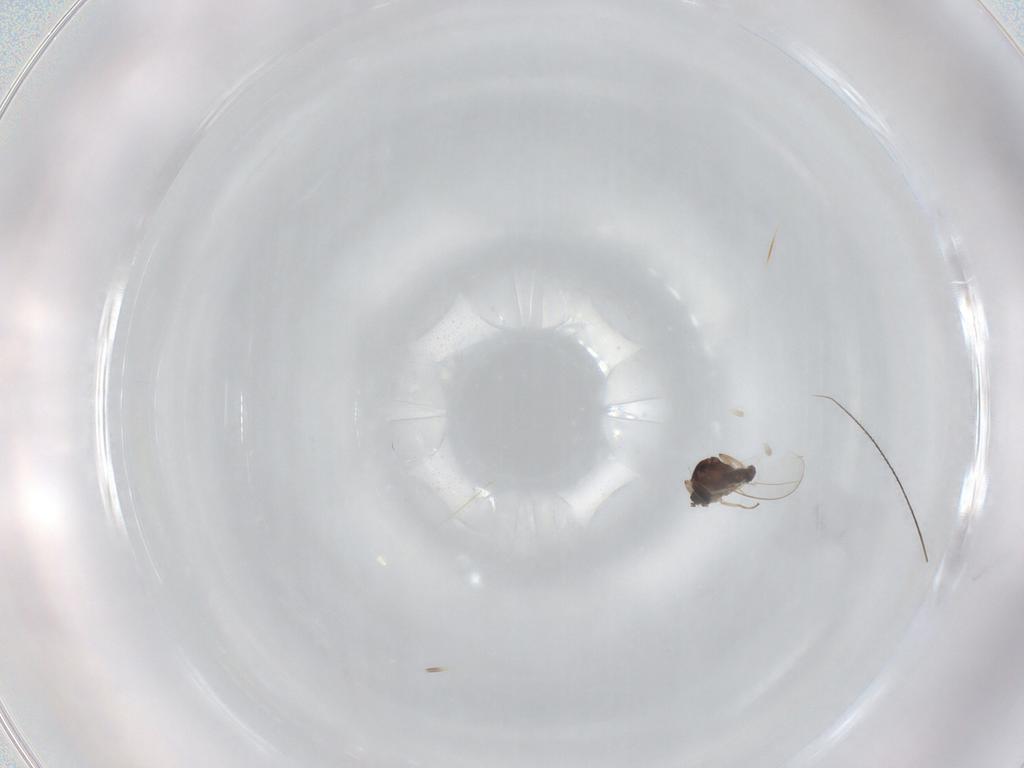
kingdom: Animalia
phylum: Arthropoda
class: Insecta
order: Diptera
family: Cecidomyiidae
